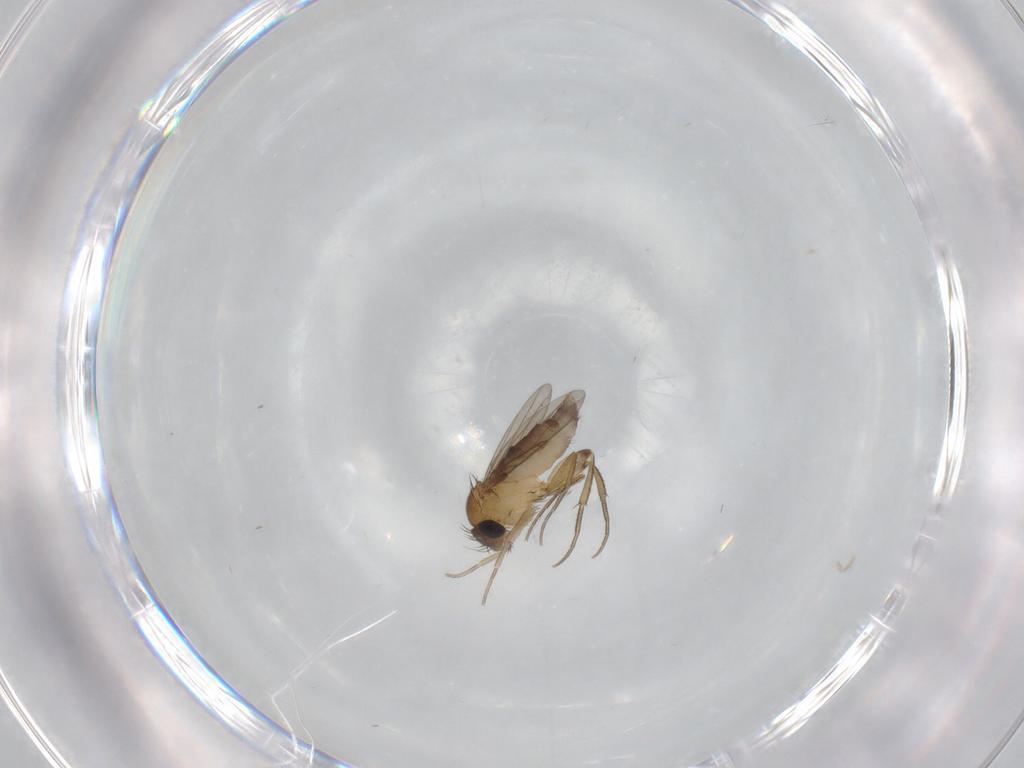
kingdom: Animalia
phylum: Arthropoda
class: Insecta
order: Diptera
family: Phoridae
